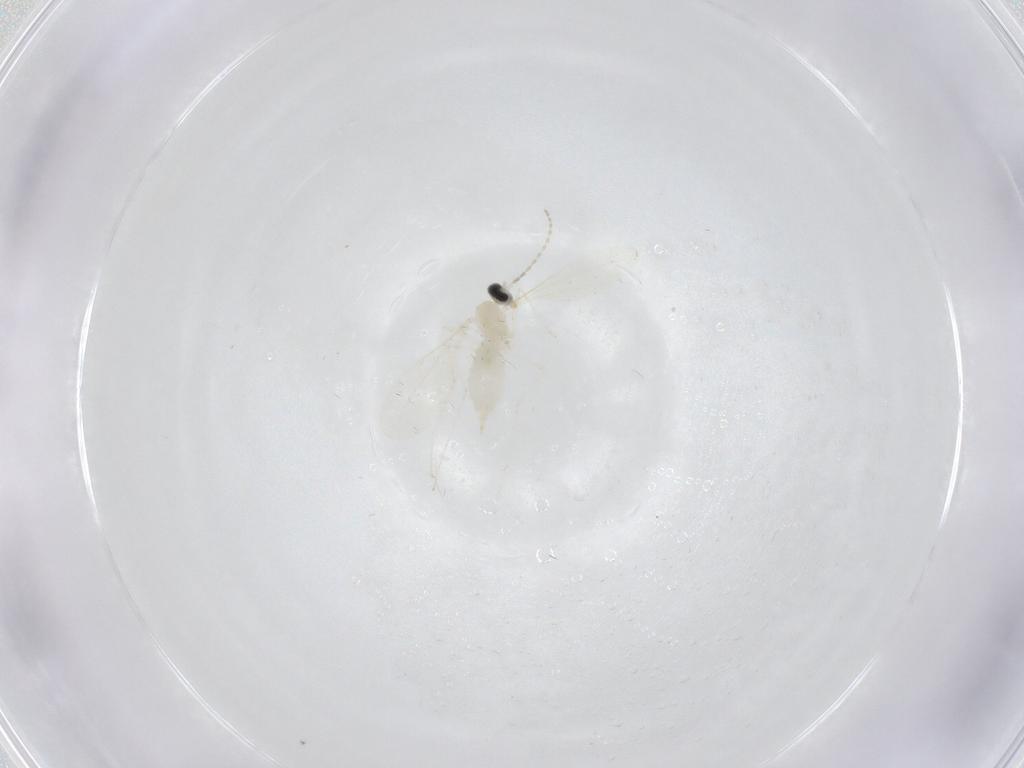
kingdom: Animalia
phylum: Arthropoda
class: Insecta
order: Diptera
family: Cecidomyiidae
